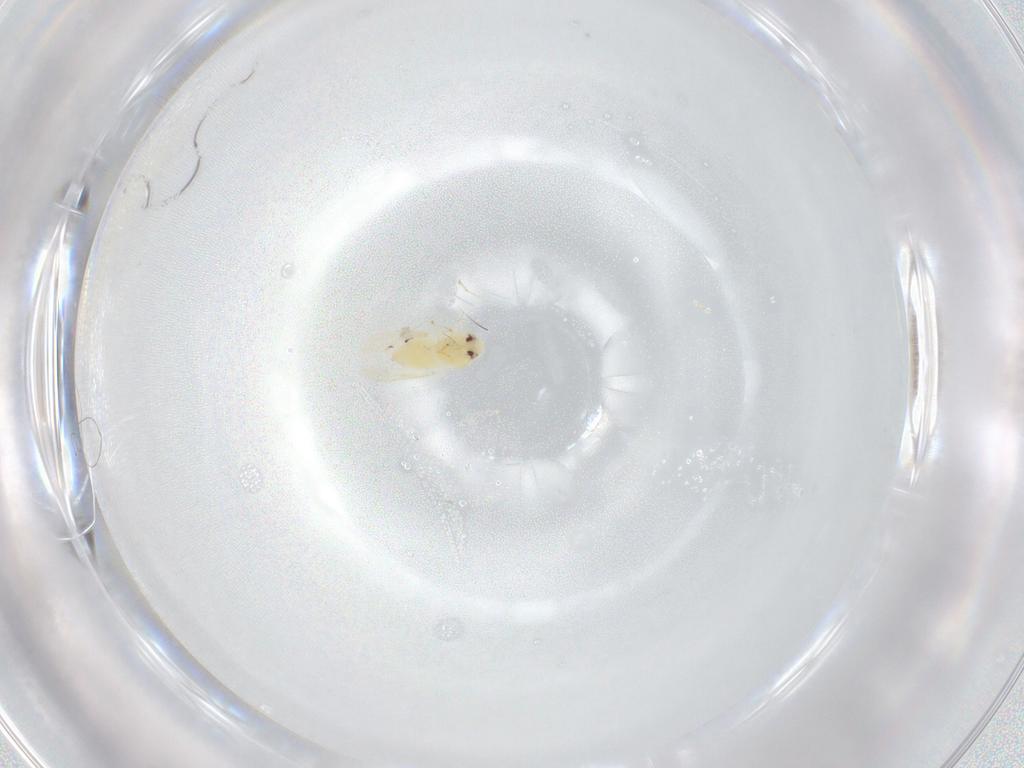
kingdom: Animalia
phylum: Arthropoda
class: Insecta
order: Hemiptera
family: Aleyrodidae
